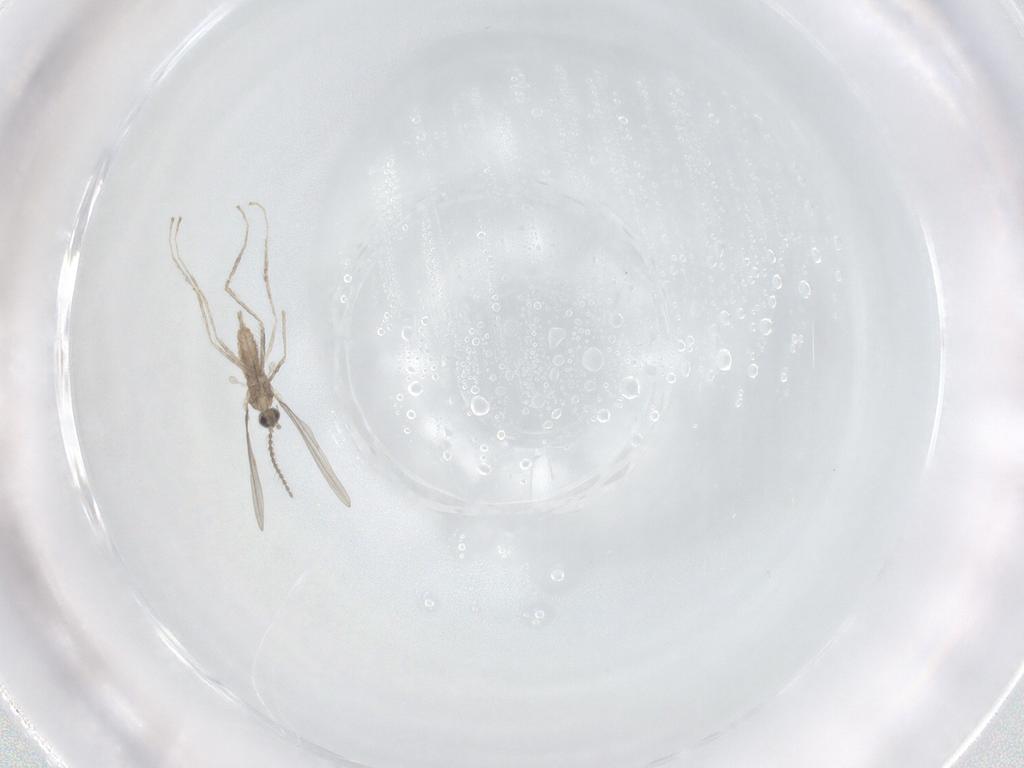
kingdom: Animalia
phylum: Arthropoda
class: Insecta
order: Diptera
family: Cecidomyiidae
